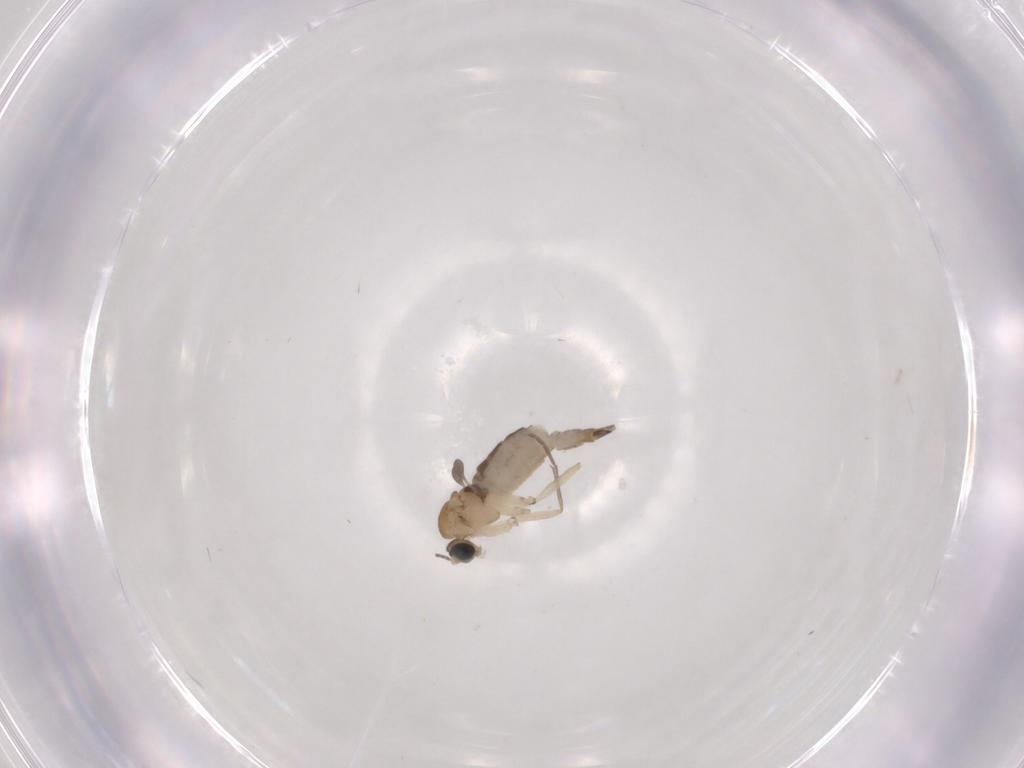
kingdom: Animalia
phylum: Arthropoda
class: Insecta
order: Diptera
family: Sciaridae
